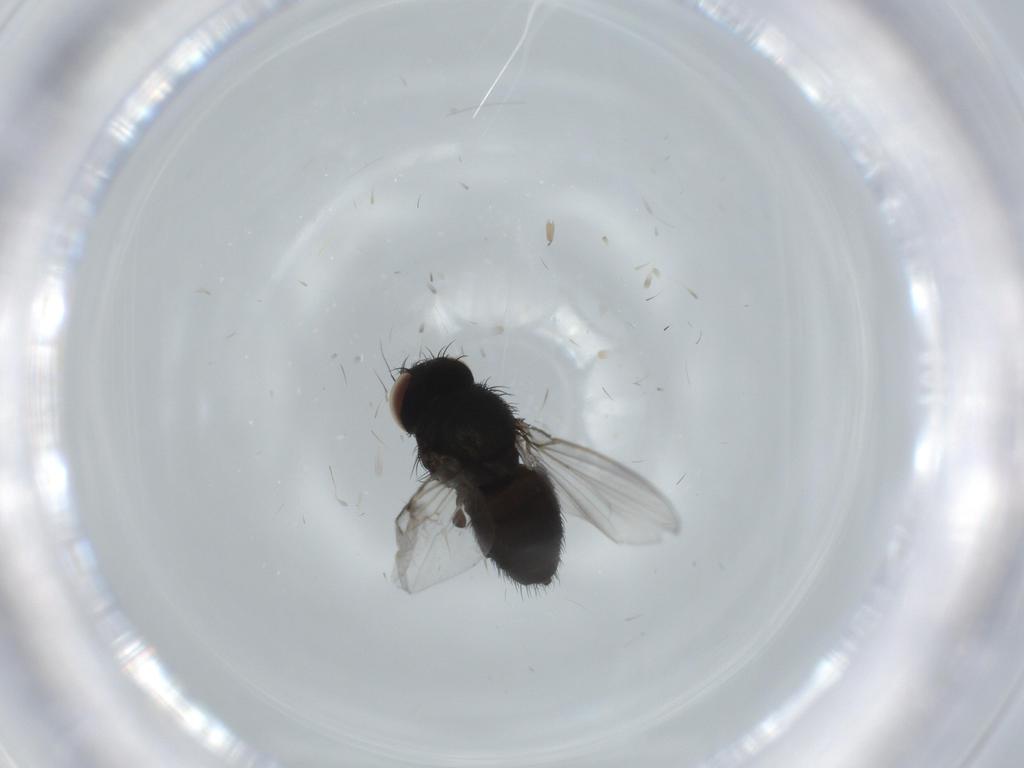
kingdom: Animalia
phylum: Arthropoda
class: Insecta
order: Diptera
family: Milichiidae
